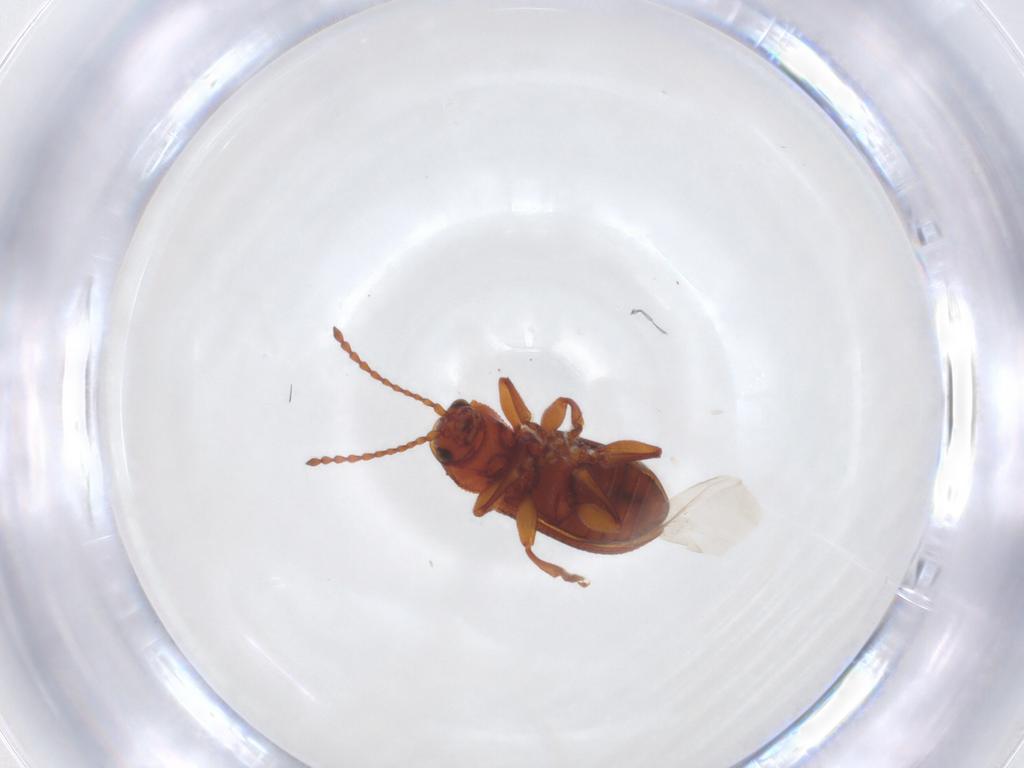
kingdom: Animalia
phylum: Arthropoda
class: Insecta
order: Coleoptera
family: Chrysomelidae
